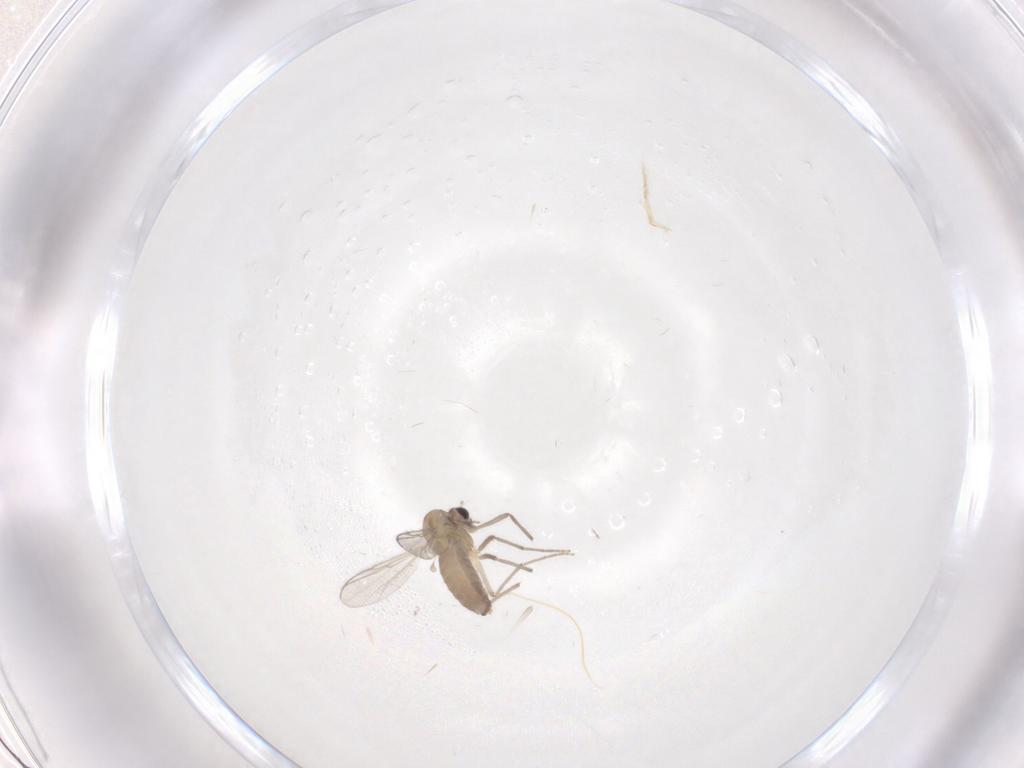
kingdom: Animalia
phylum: Arthropoda
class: Insecta
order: Diptera
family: Chironomidae
